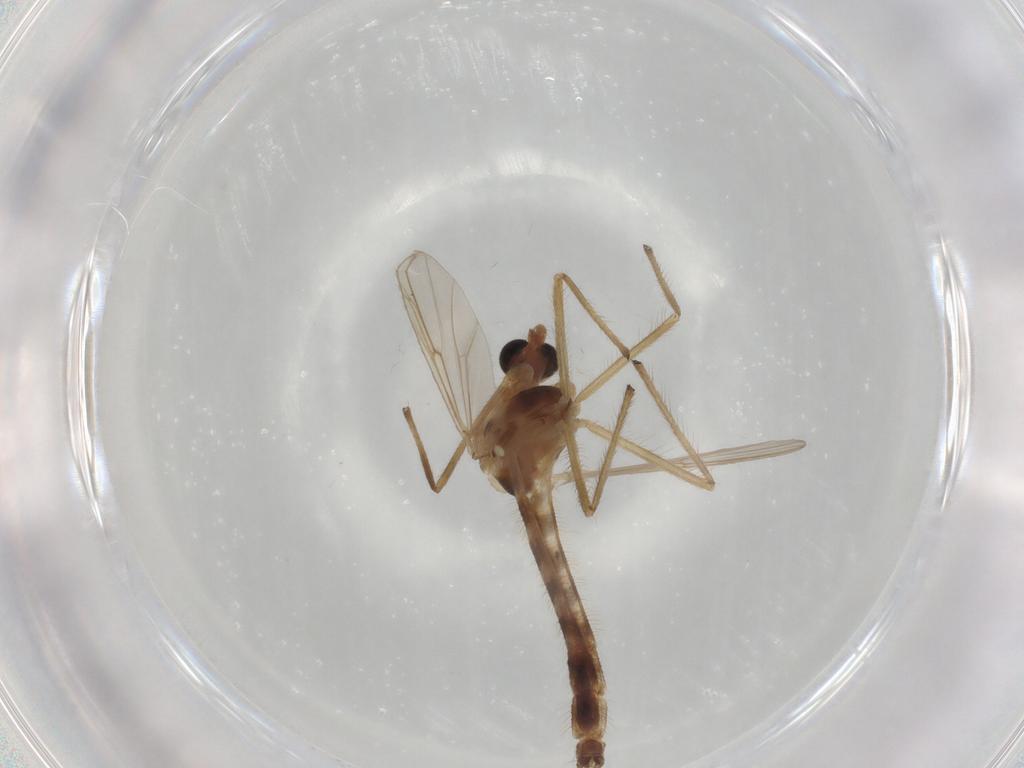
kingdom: Animalia
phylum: Arthropoda
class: Insecta
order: Diptera
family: Chironomidae
